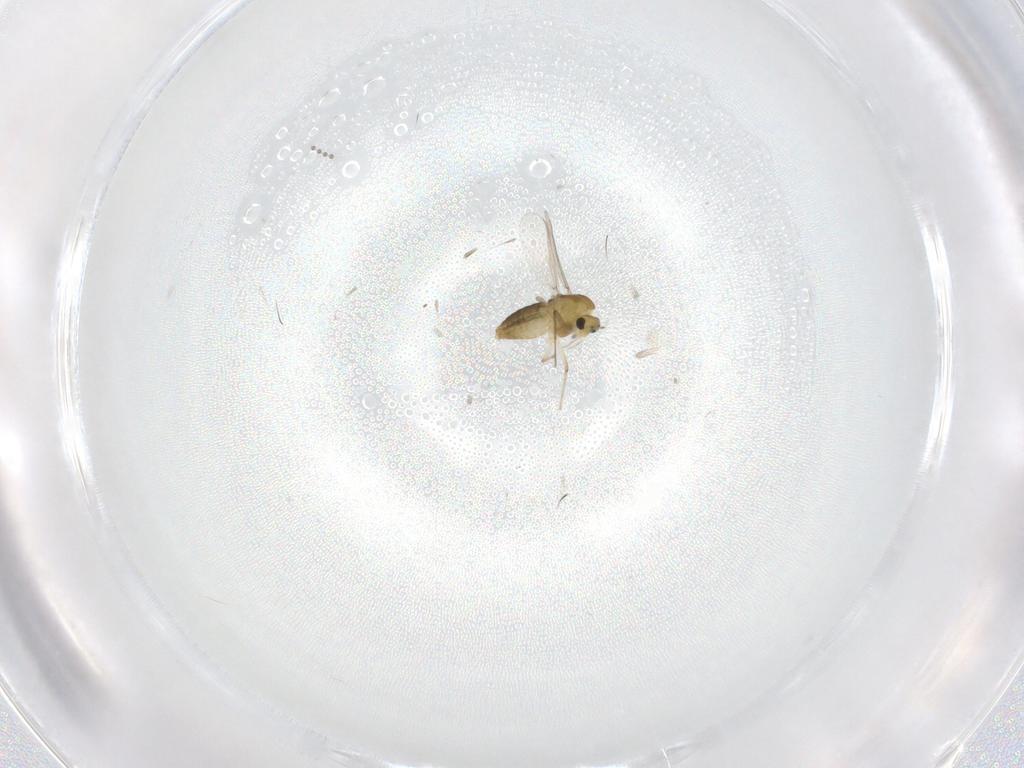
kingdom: Animalia
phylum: Arthropoda
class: Insecta
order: Diptera
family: Chironomidae
